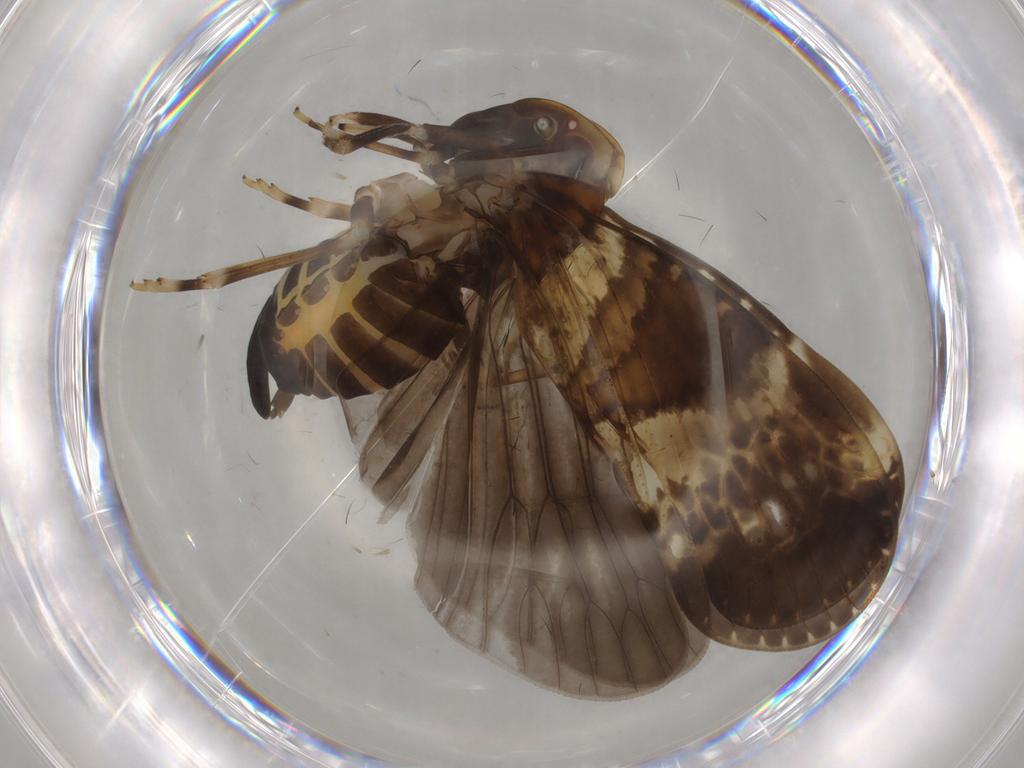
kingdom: Animalia
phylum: Arthropoda
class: Insecta
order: Hemiptera
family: Cixiidae
